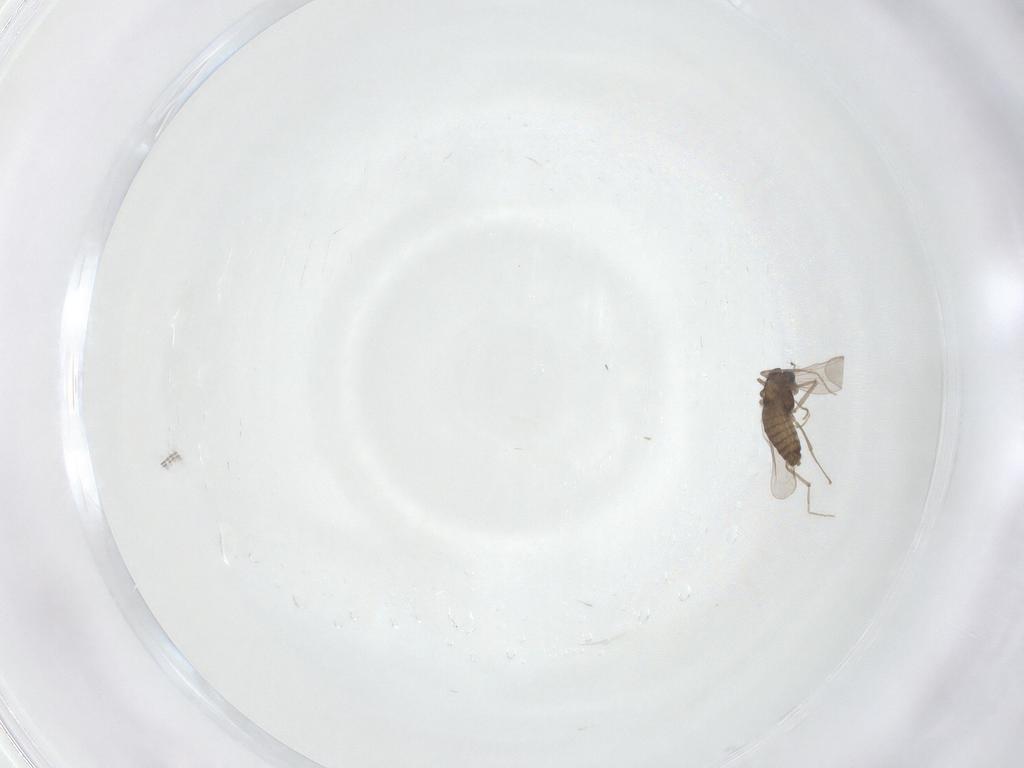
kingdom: Animalia
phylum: Arthropoda
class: Insecta
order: Diptera
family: Chironomidae
